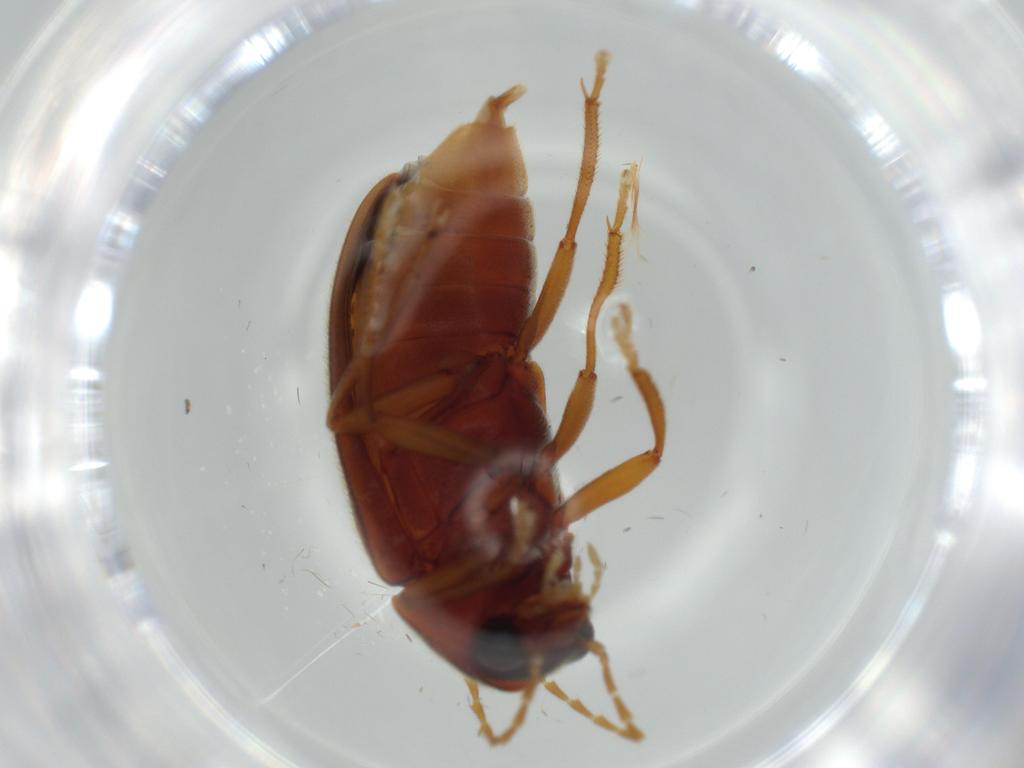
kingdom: Animalia
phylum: Arthropoda
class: Insecta
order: Coleoptera
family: Ptilodactylidae
